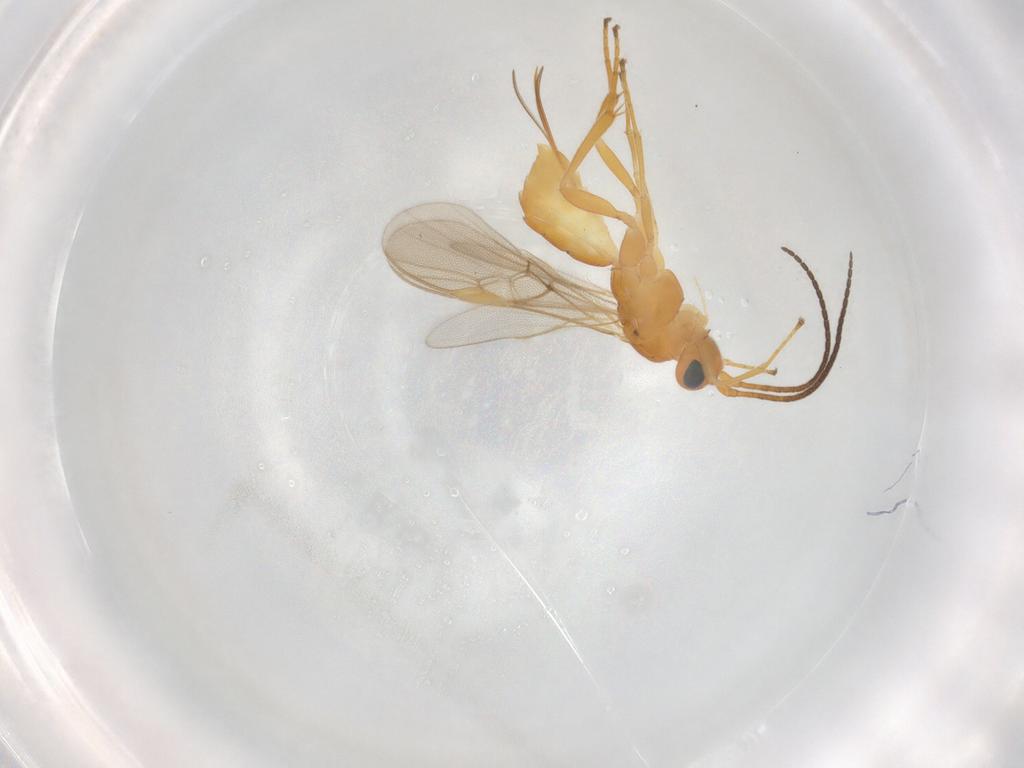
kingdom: Animalia
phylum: Arthropoda
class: Insecta
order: Hymenoptera
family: Braconidae
